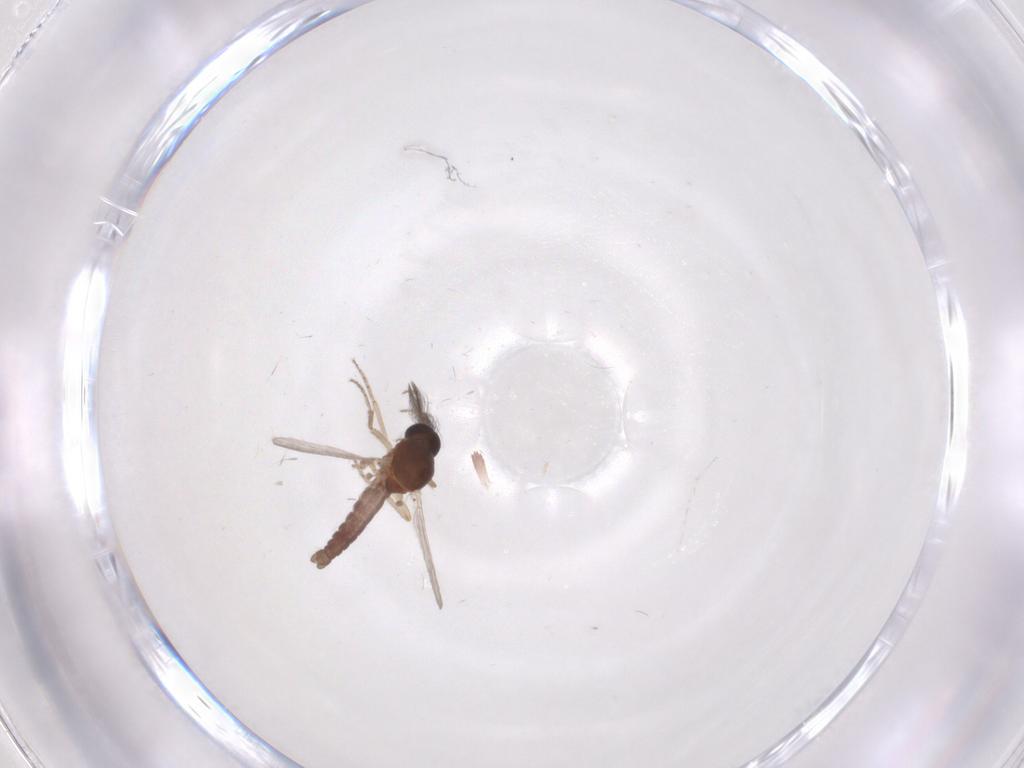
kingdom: Animalia
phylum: Arthropoda
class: Insecta
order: Diptera
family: Ceratopogonidae
